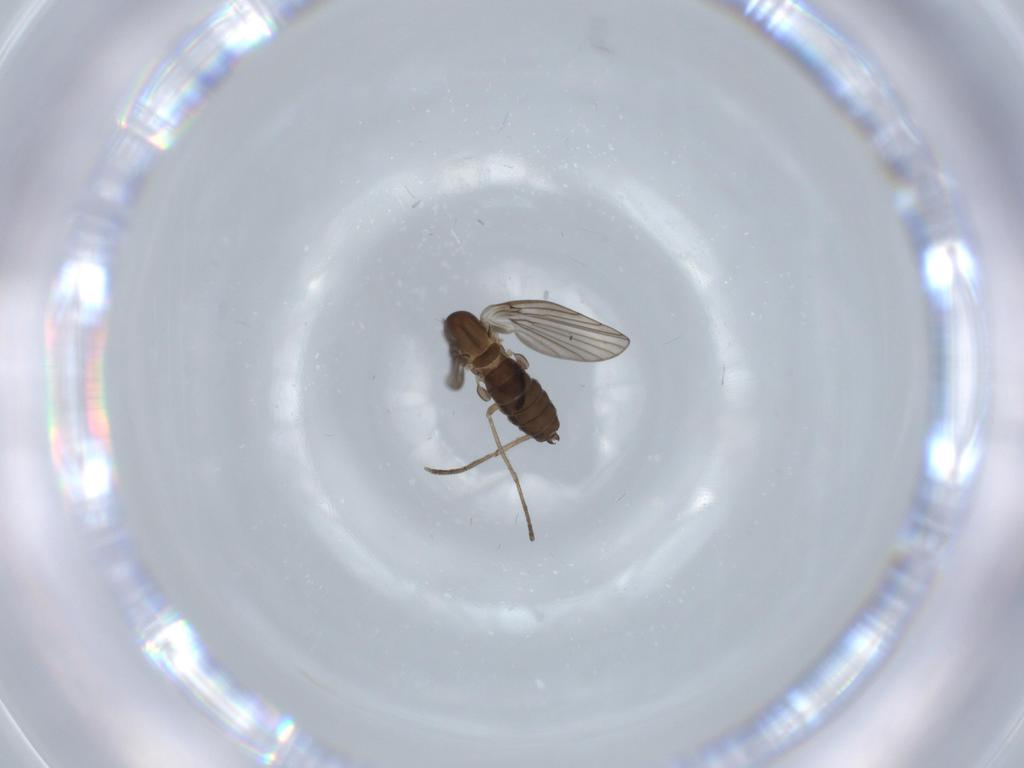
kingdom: Animalia
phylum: Arthropoda
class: Insecta
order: Diptera
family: Psychodidae
